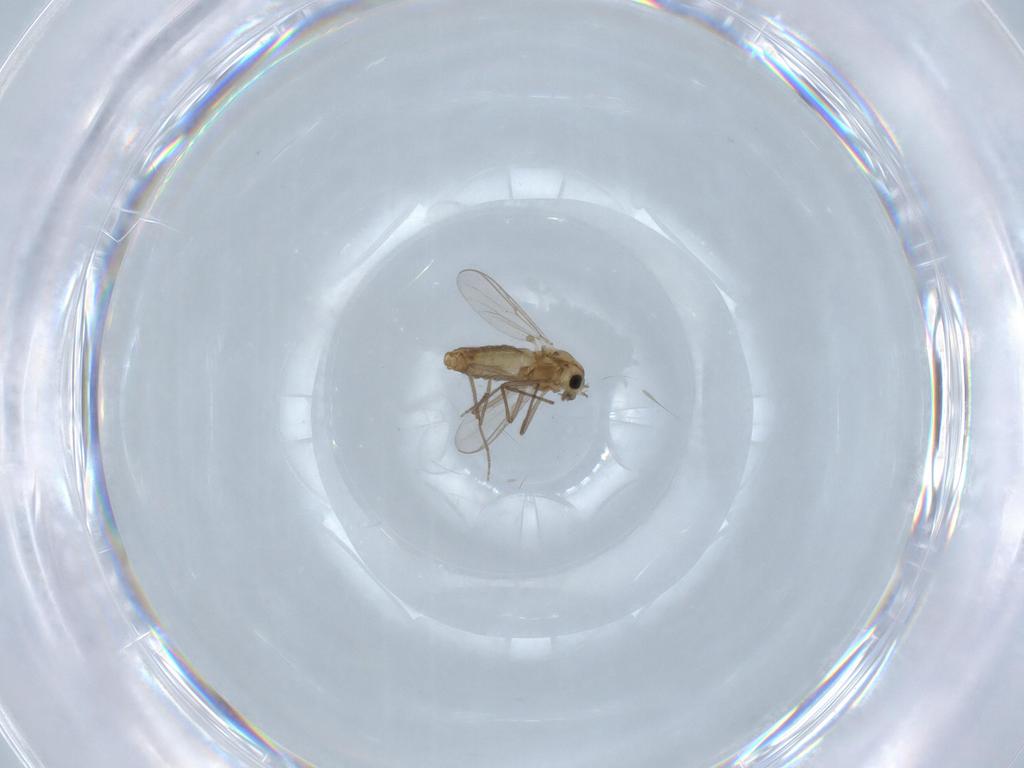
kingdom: Animalia
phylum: Arthropoda
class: Insecta
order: Diptera
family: Chironomidae
